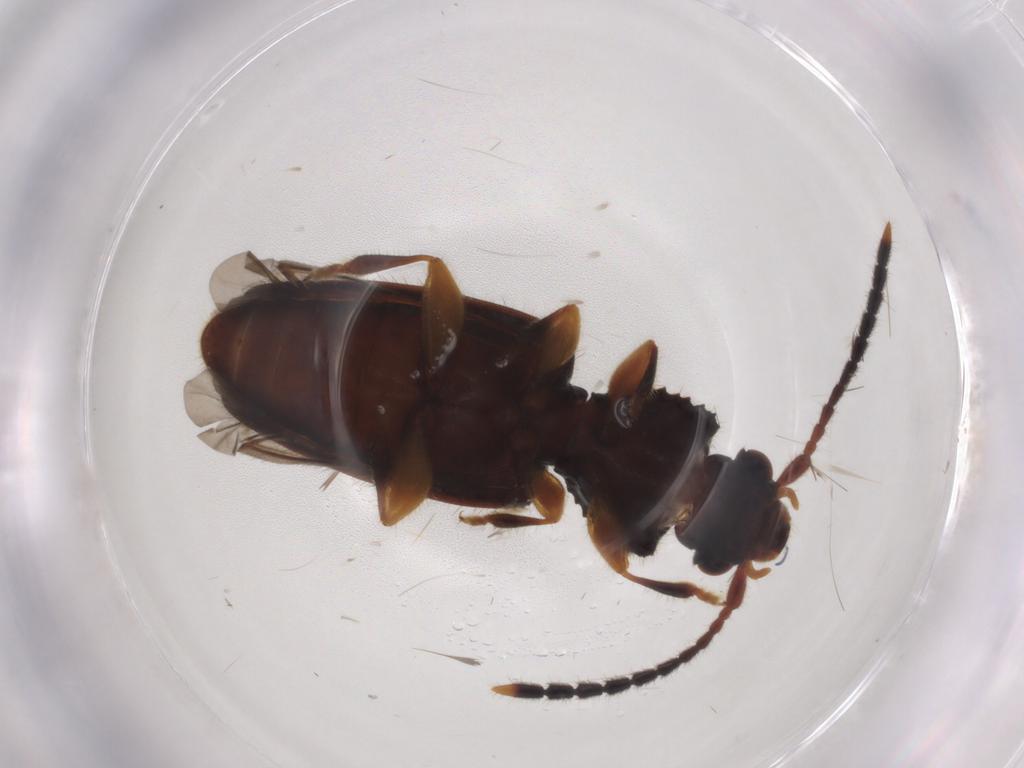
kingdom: Animalia
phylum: Arthropoda
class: Insecta
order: Coleoptera
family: Silvanidae
